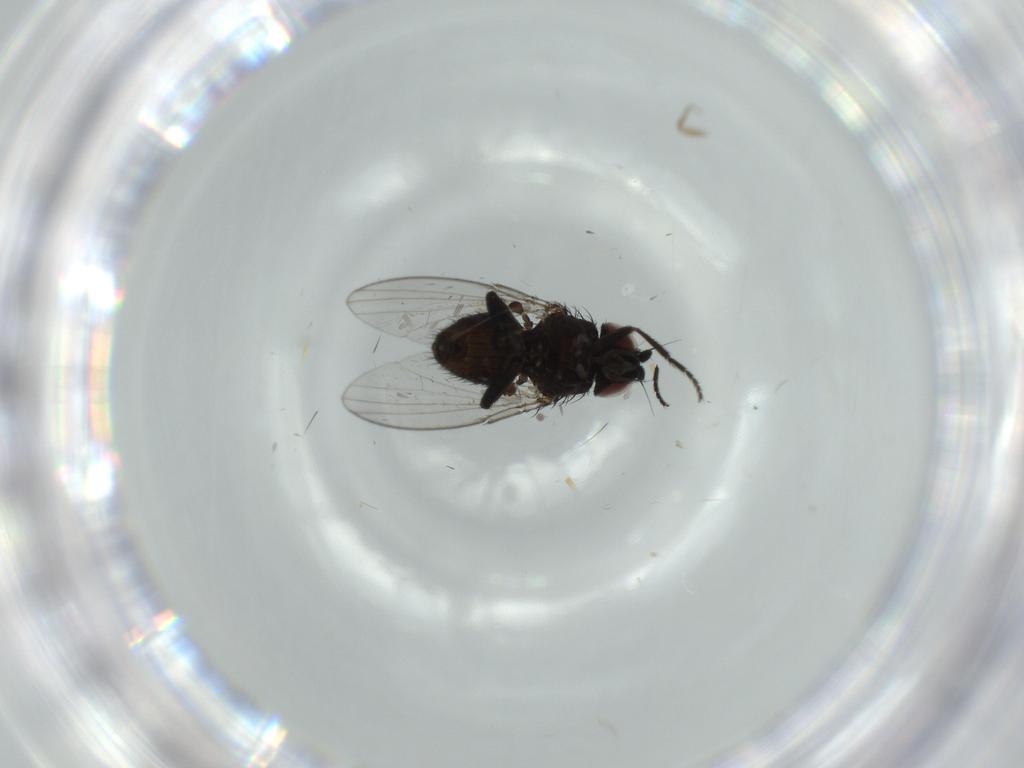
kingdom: Animalia
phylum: Arthropoda
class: Insecta
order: Diptera
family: Milichiidae
